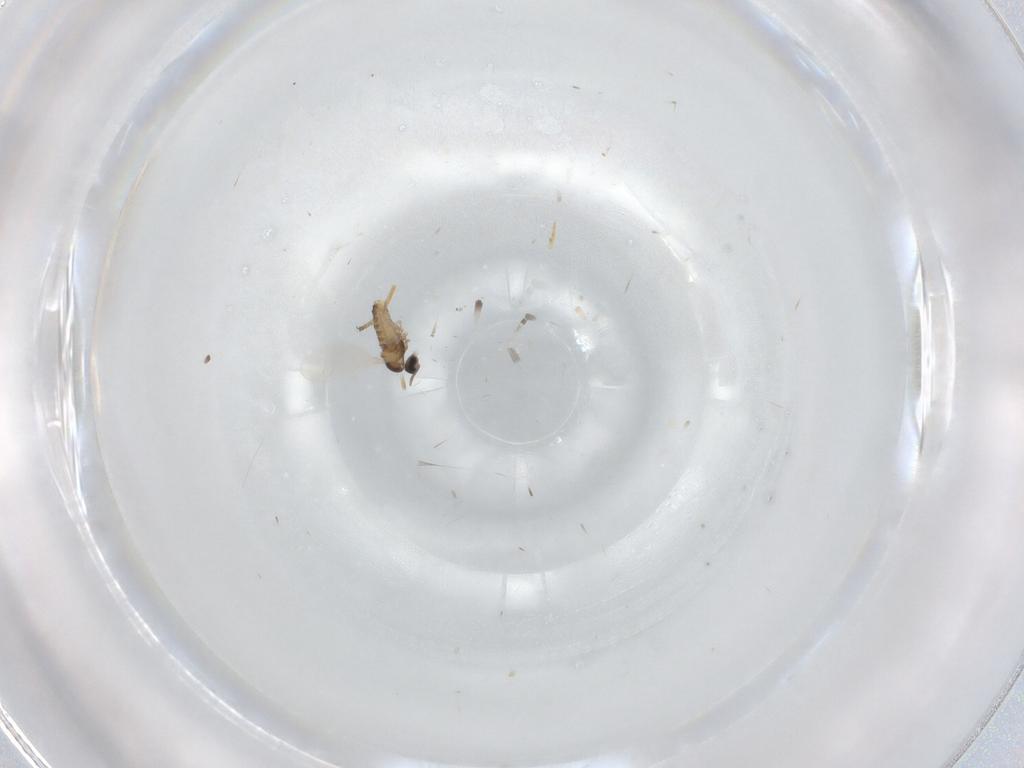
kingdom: Animalia
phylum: Arthropoda
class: Insecta
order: Diptera
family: Chloropidae
